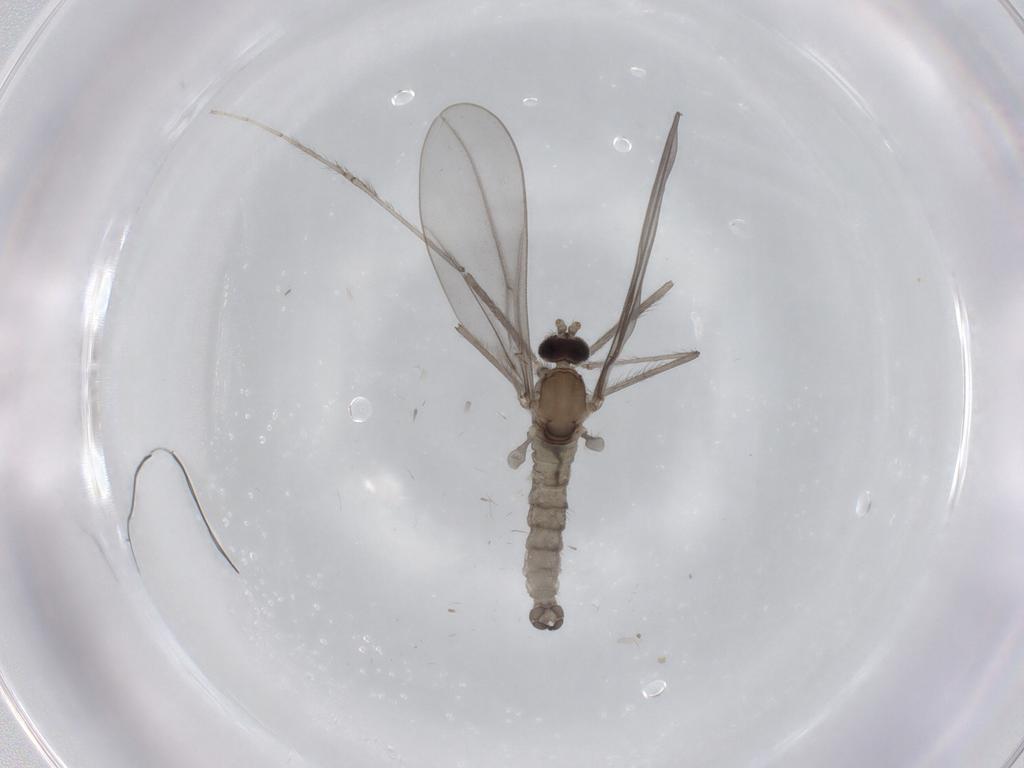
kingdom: Animalia
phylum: Arthropoda
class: Insecta
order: Diptera
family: Cecidomyiidae
